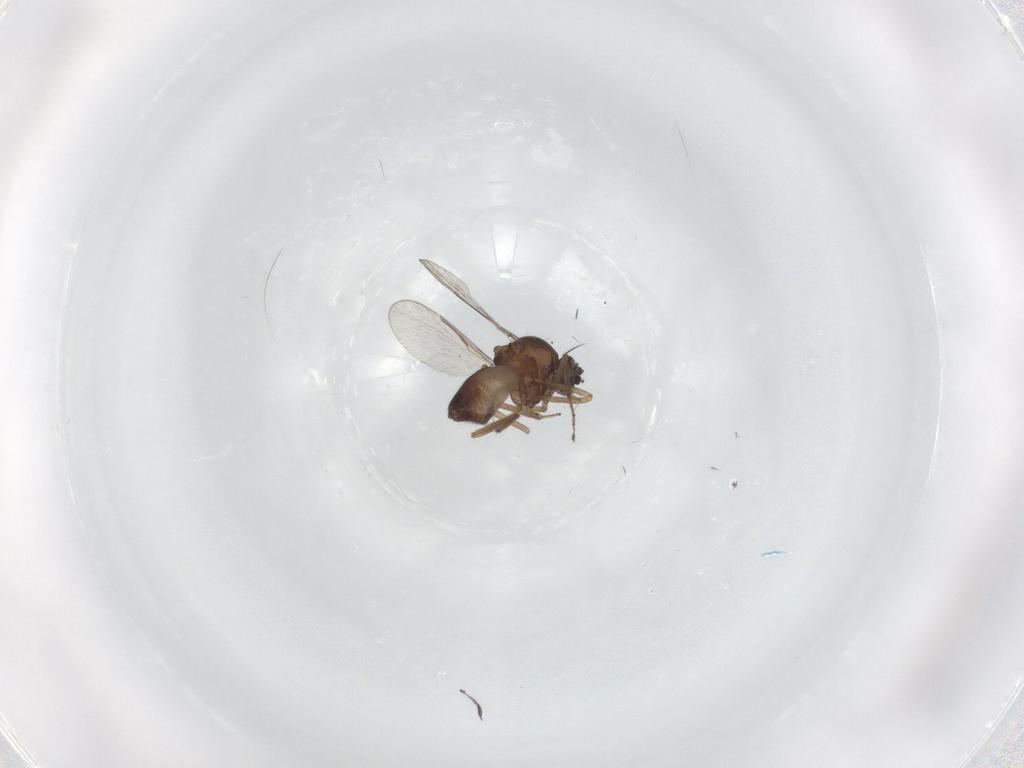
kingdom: Animalia
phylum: Arthropoda
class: Insecta
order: Diptera
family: Ceratopogonidae
